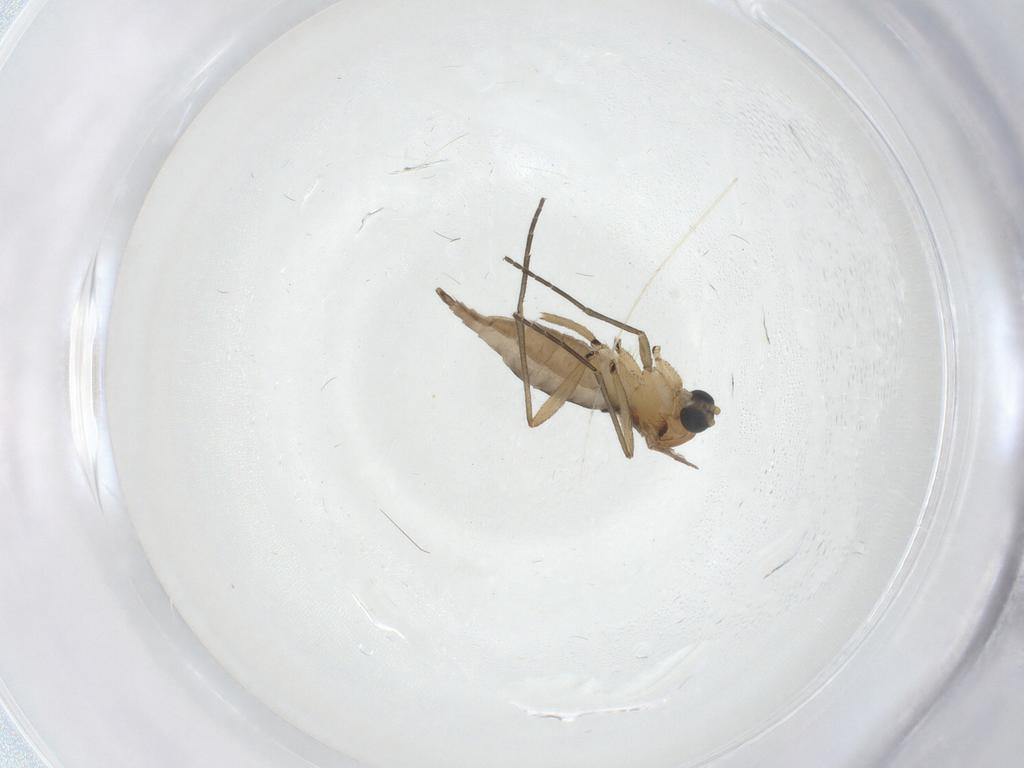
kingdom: Animalia
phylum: Arthropoda
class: Insecta
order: Diptera
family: Sciaridae
